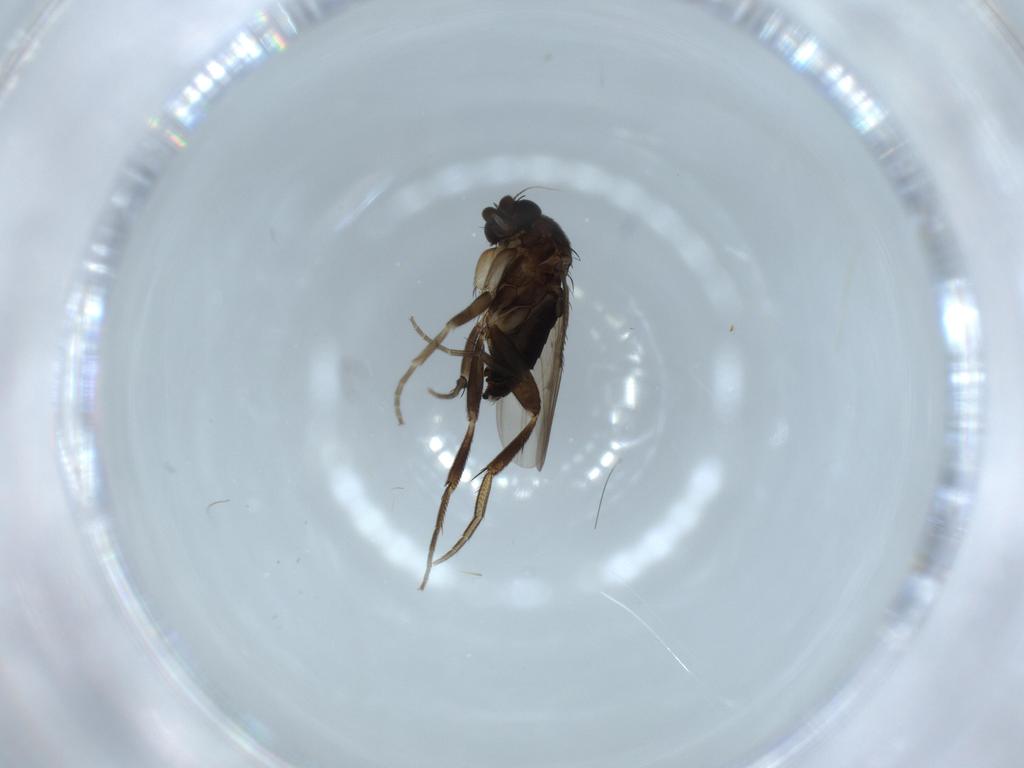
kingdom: Animalia
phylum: Arthropoda
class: Insecta
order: Diptera
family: Phoridae
